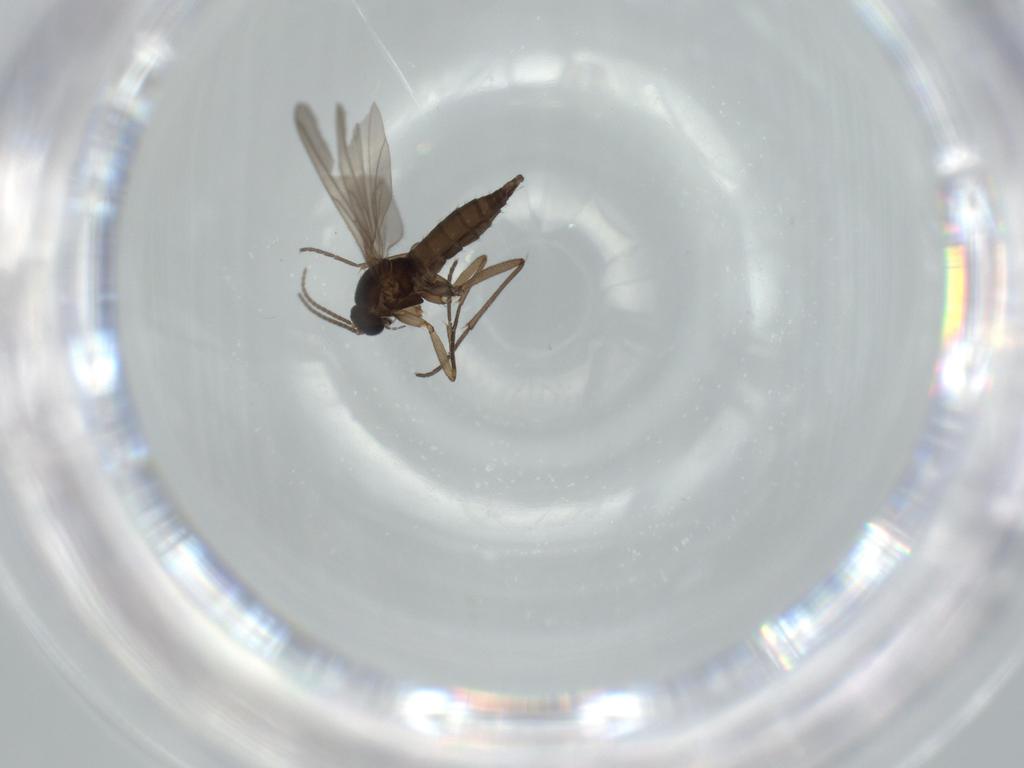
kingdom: Animalia
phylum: Arthropoda
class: Insecta
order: Diptera
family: Sciaridae
